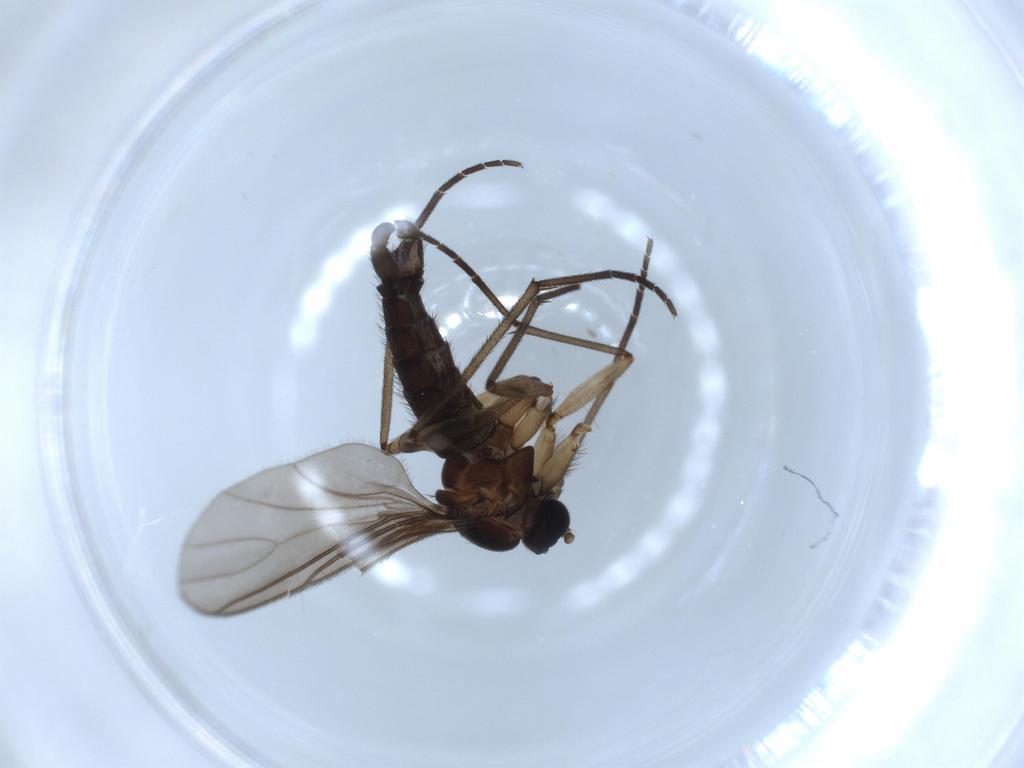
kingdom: Animalia
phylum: Arthropoda
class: Insecta
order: Diptera
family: Sciaridae
